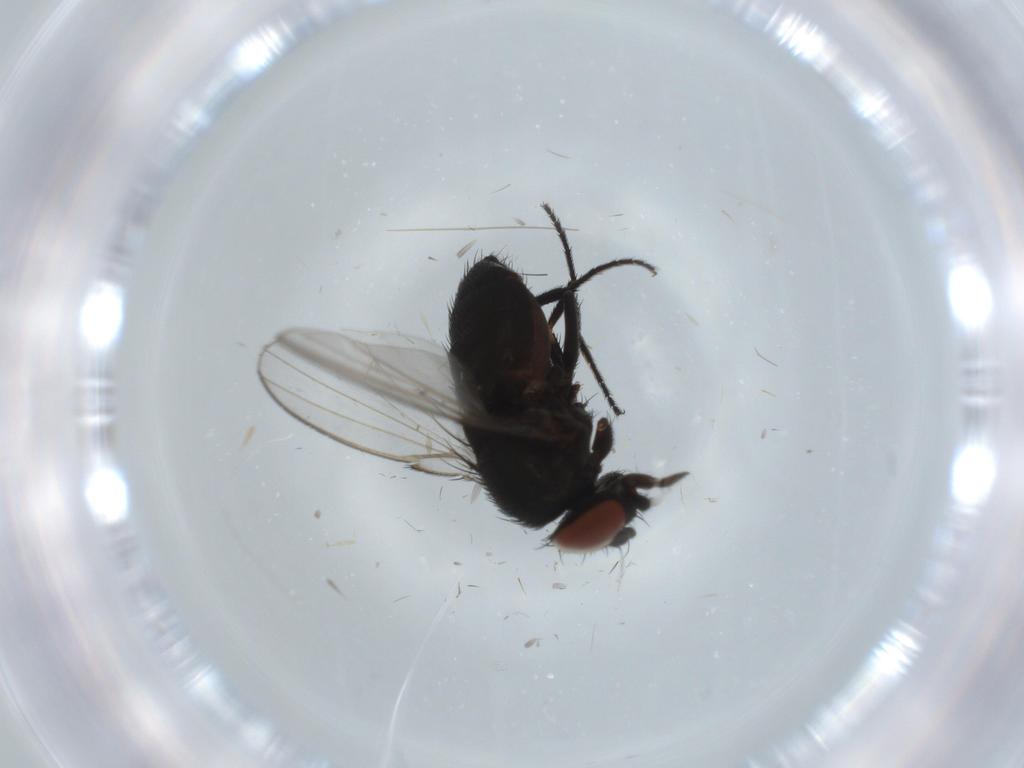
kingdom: Animalia
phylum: Arthropoda
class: Insecta
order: Diptera
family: Milichiidae
